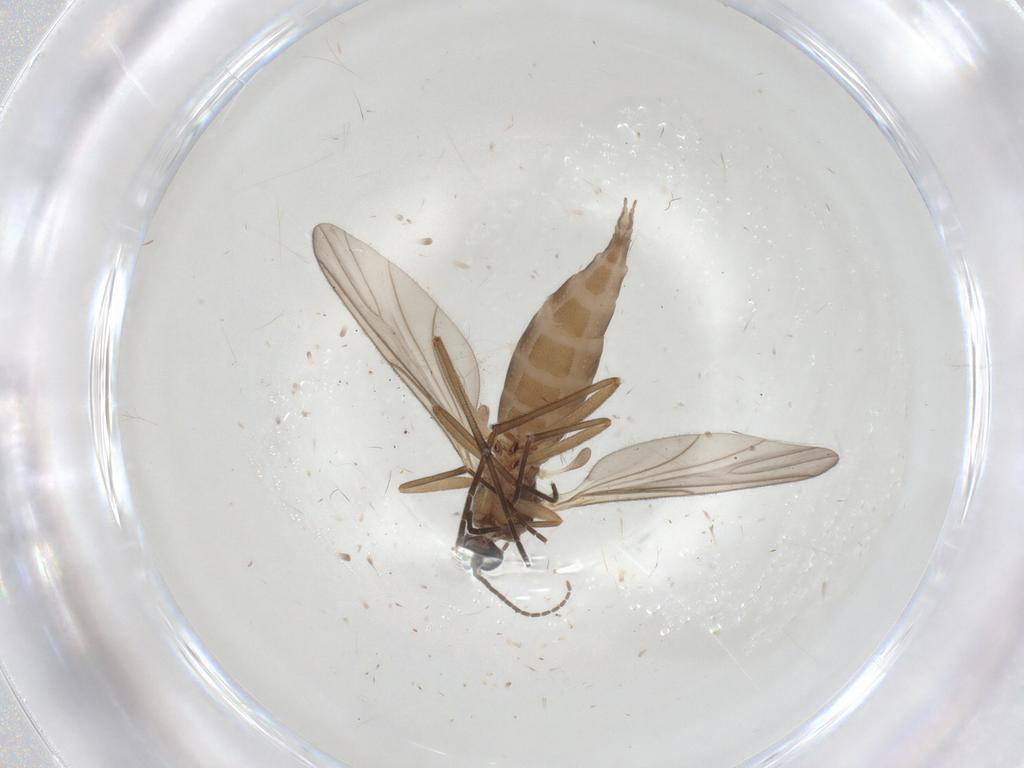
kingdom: Animalia
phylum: Arthropoda
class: Insecta
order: Diptera
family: Sciaridae
